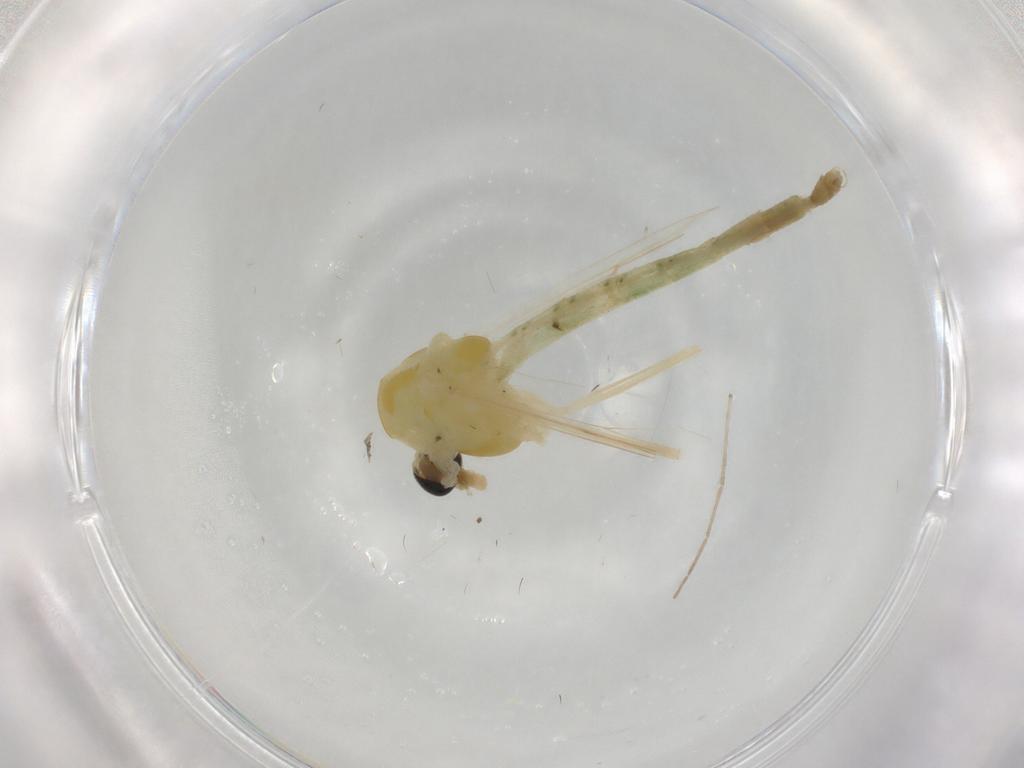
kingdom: Animalia
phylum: Arthropoda
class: Insecta
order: Diptera
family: Chironomidae
